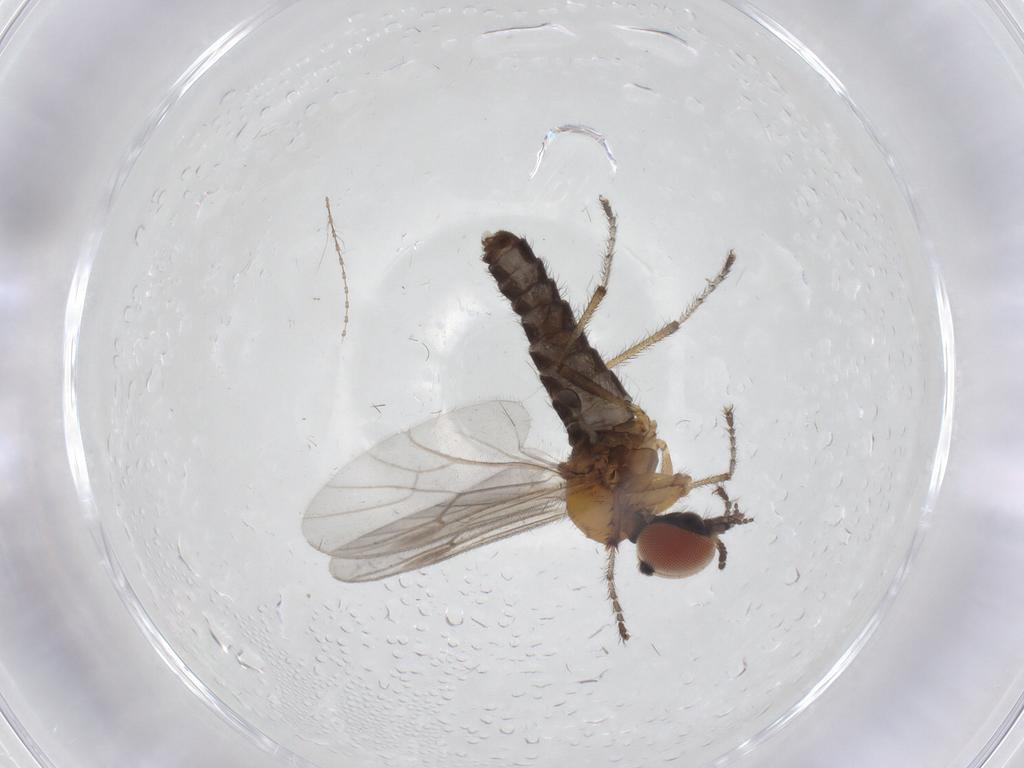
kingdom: Animalia
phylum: Arthropoda
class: Insecta
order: Diptera
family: Bibionidae
